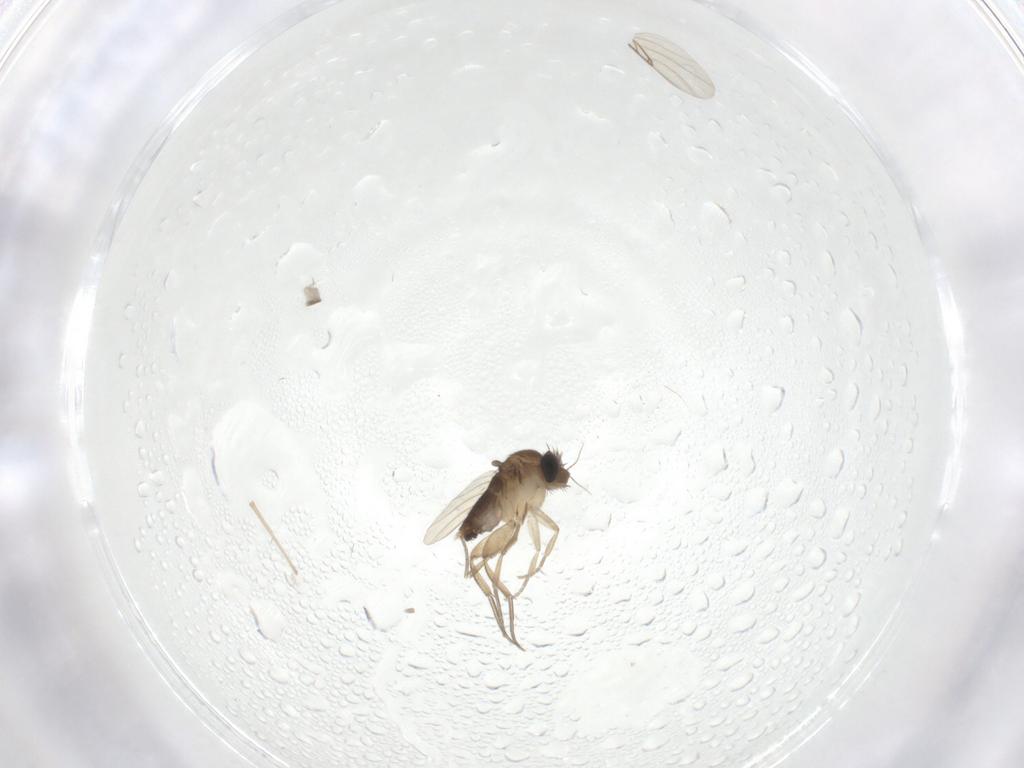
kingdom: Animalia
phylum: Arthropoda
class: Insecta
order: Diptera
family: Phoridae
